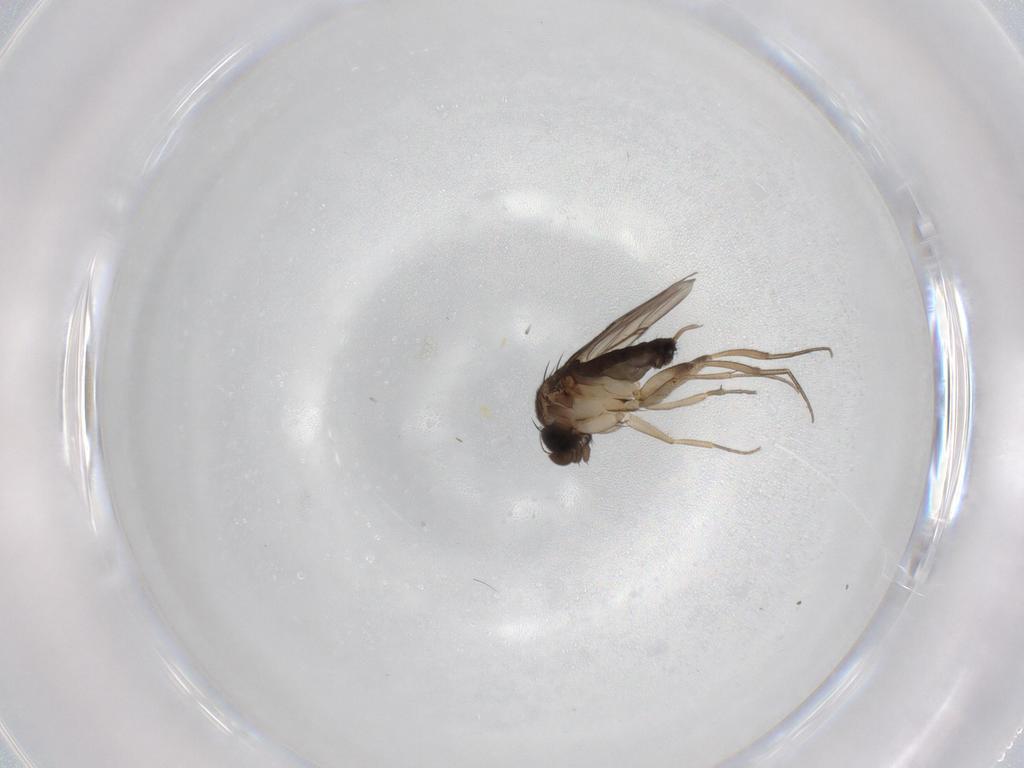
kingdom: Animalia
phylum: Arthropoda
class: Insecta
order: Diptera
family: Phoridae
